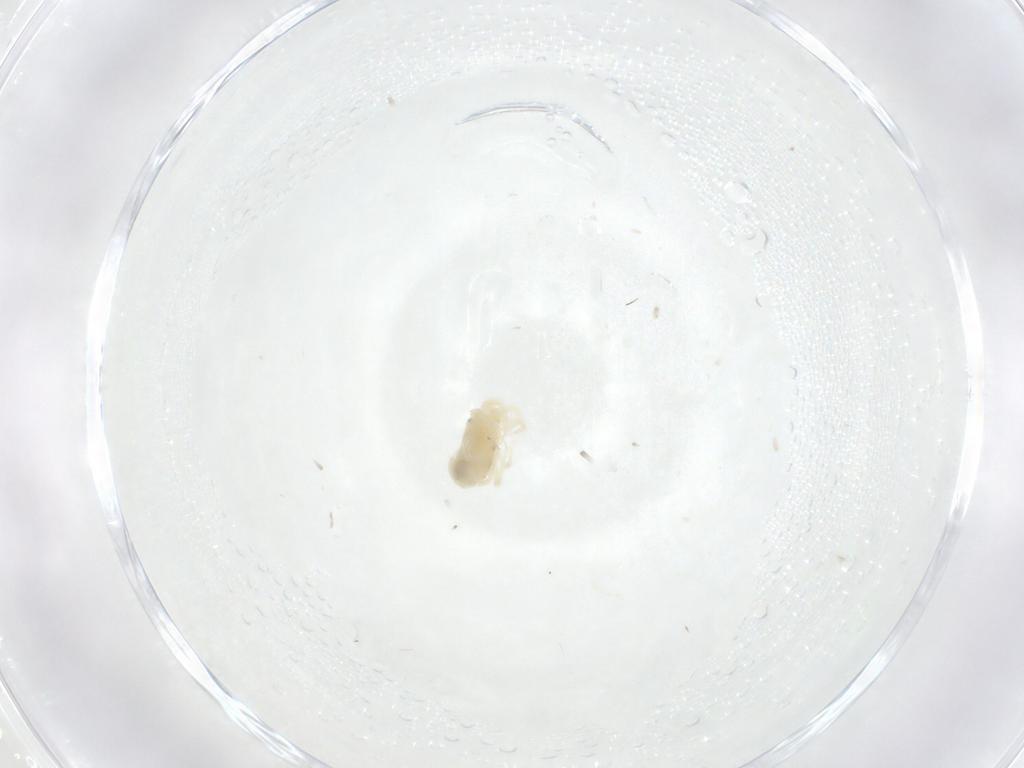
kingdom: Animalia
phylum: Arthropoda
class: Arachnida
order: Trombidiformes
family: Anystidae
